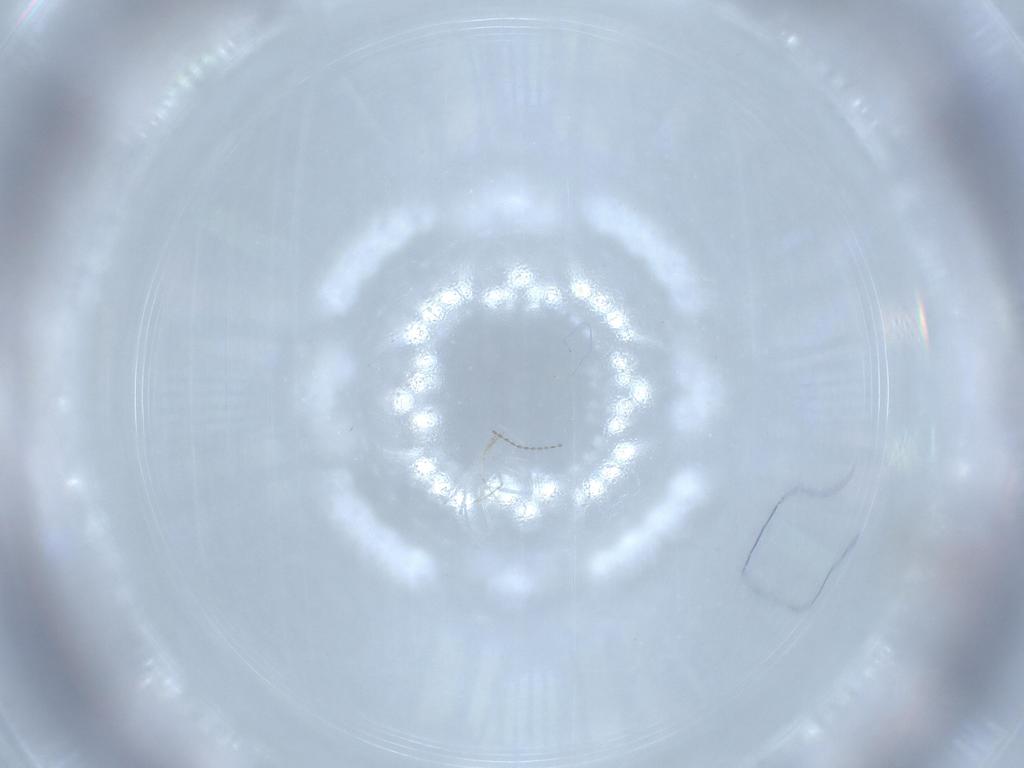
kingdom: Animalia
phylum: Arthropoda
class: Insecta
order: Diptera
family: Cecidomyiidae
